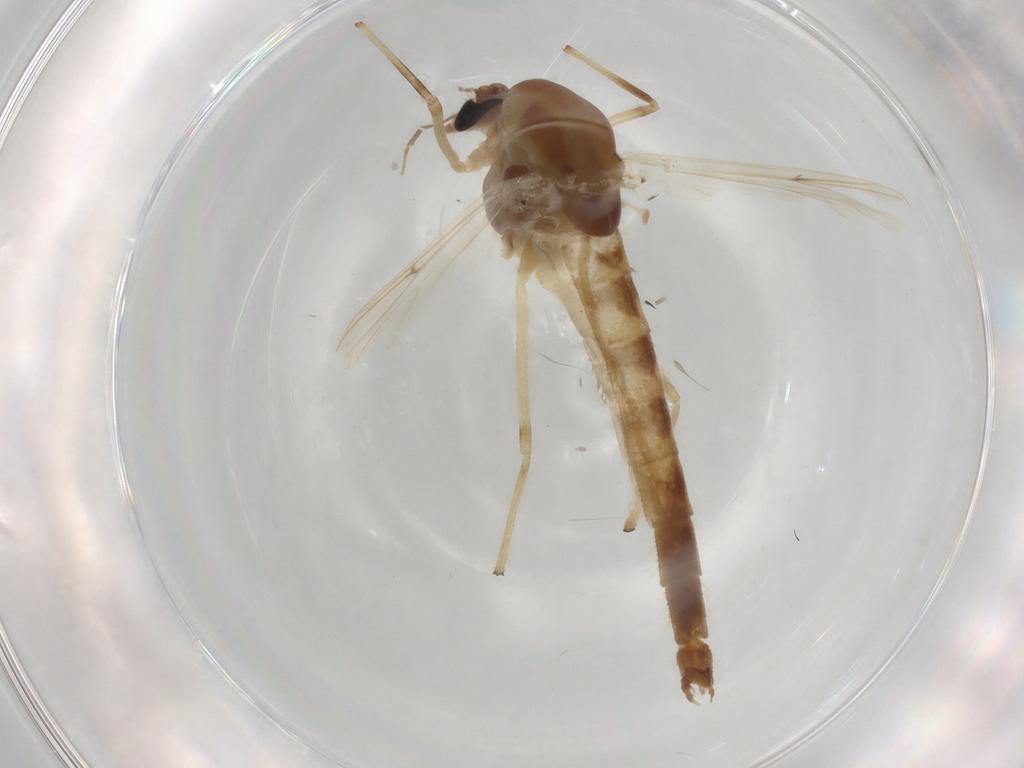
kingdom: Animalia
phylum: Arthropoda
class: Insecta
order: Diptera
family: Chironomidae
